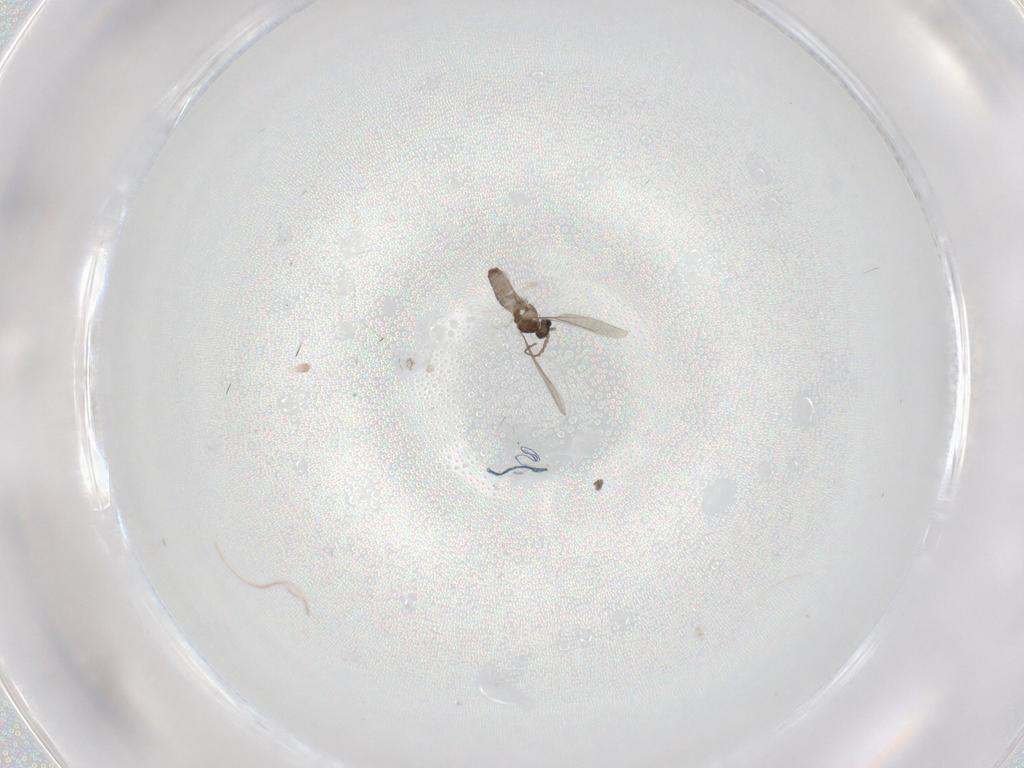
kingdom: Animalia
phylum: Arthropoda
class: Insecta
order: Diptera
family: Cecidomyiidae
